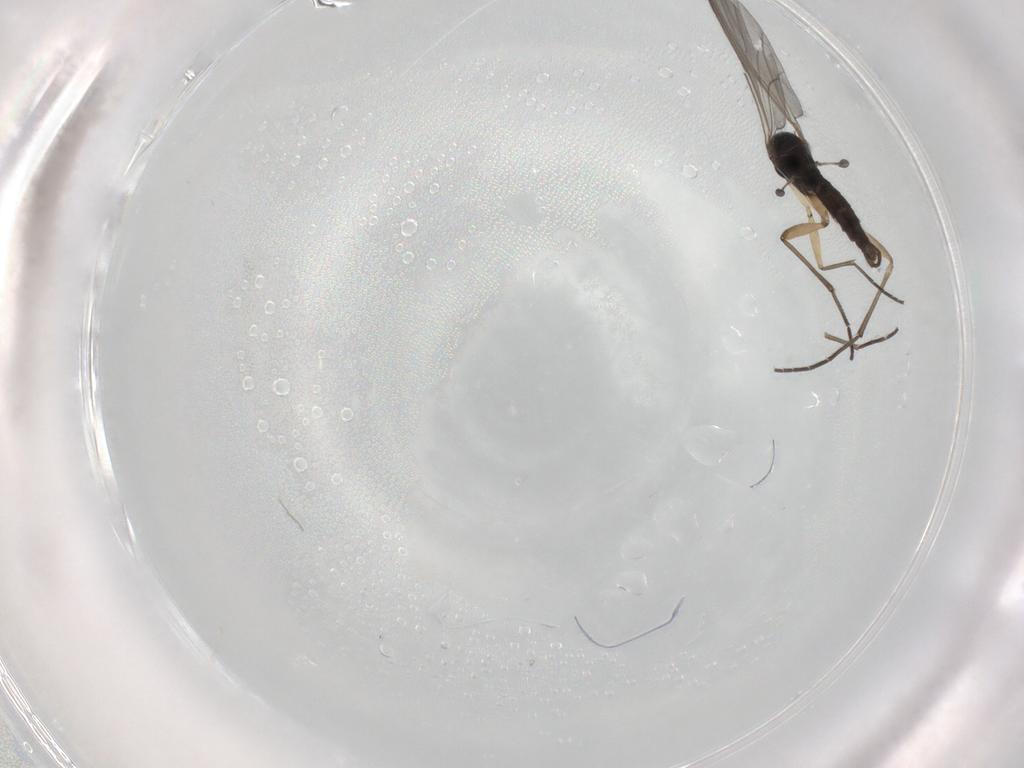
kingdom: Animalia
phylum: Arthropoda
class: Insecta
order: Diptera
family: Sciaridae
